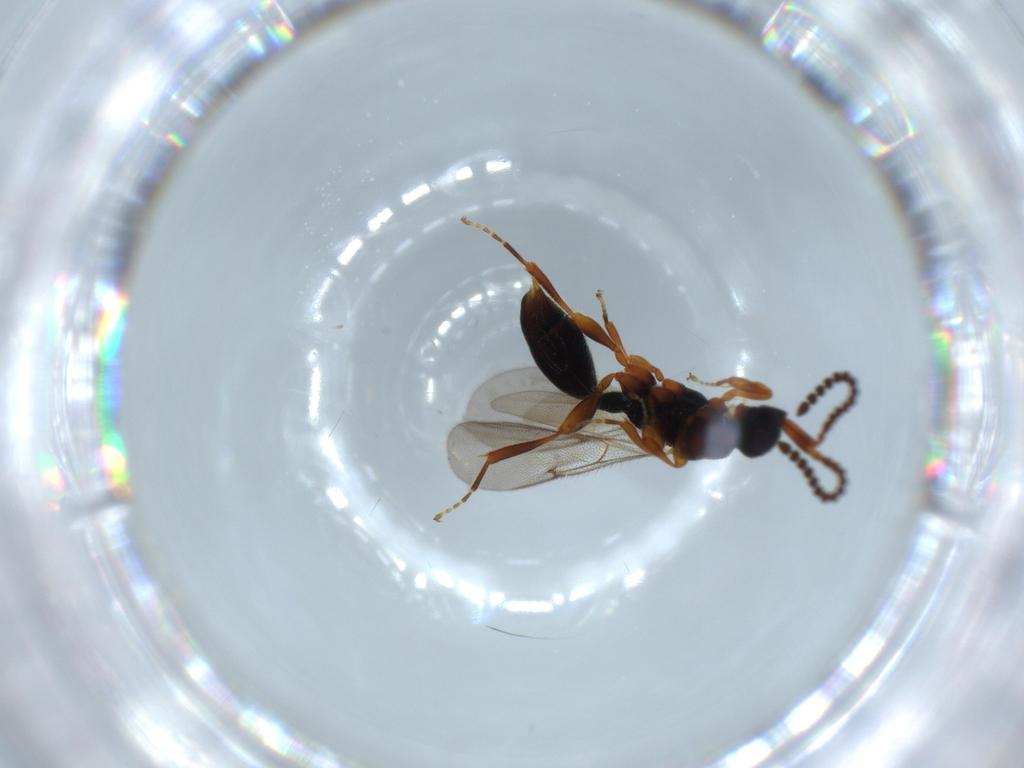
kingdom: Animalia
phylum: Arthropoda
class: Insecta
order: Hymenoptera
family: Diapriidae
